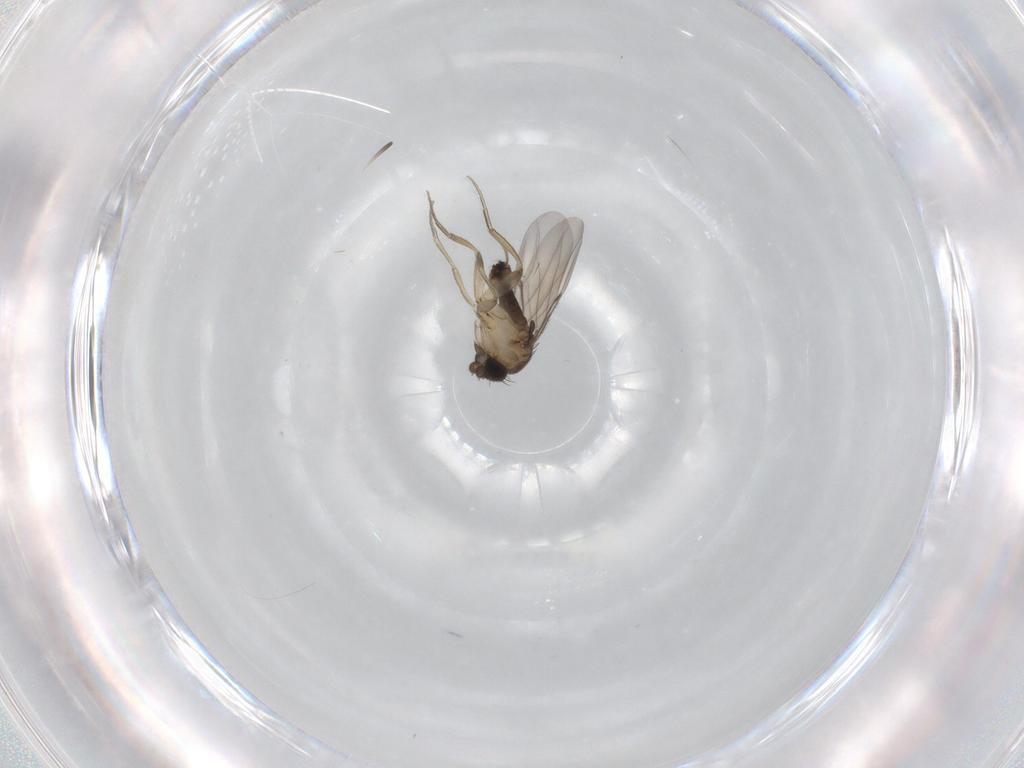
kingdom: Animalia
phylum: Arthropoda
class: Insecta
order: Diptera
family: Phoridae
